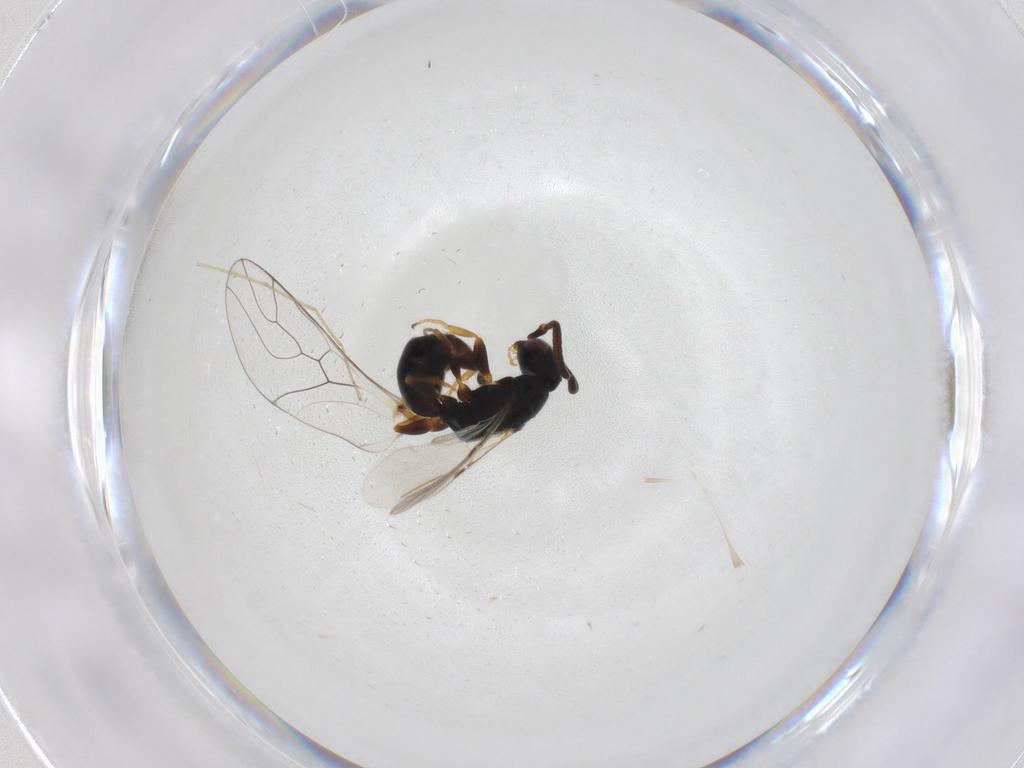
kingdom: Animalia
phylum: Arthropoda
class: Insecta
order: Hymenoptera
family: Bethylidae
